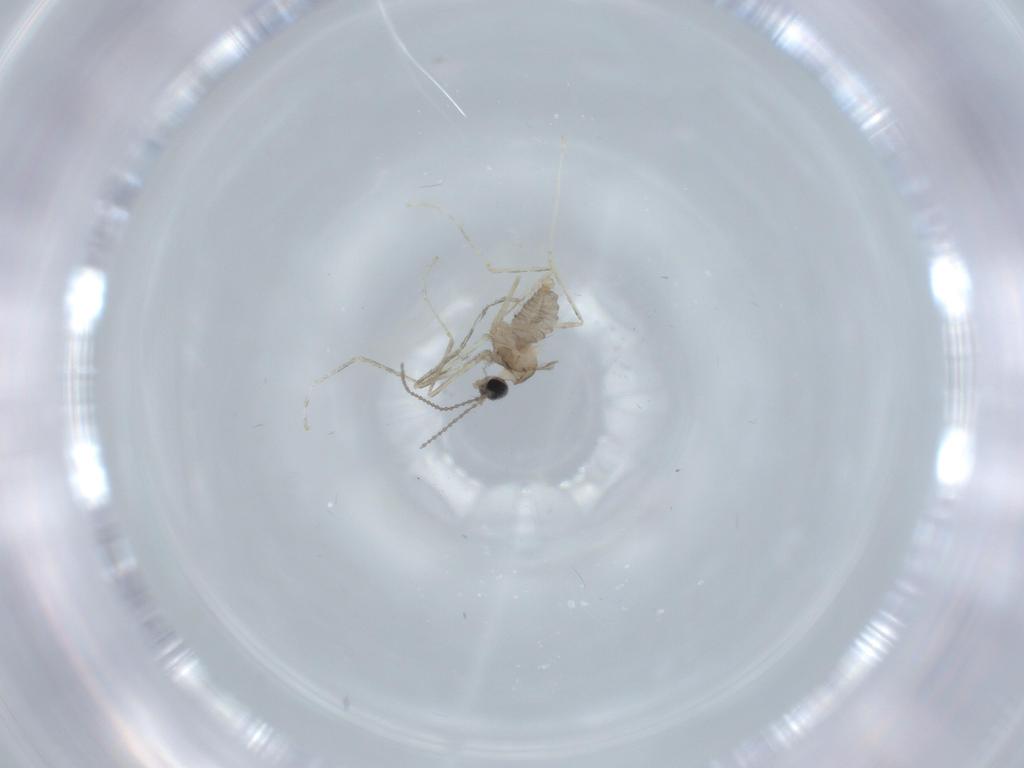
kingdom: Animalia
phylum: Arthropoda
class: Insecta
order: Diptera
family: Cecidomyiidae
